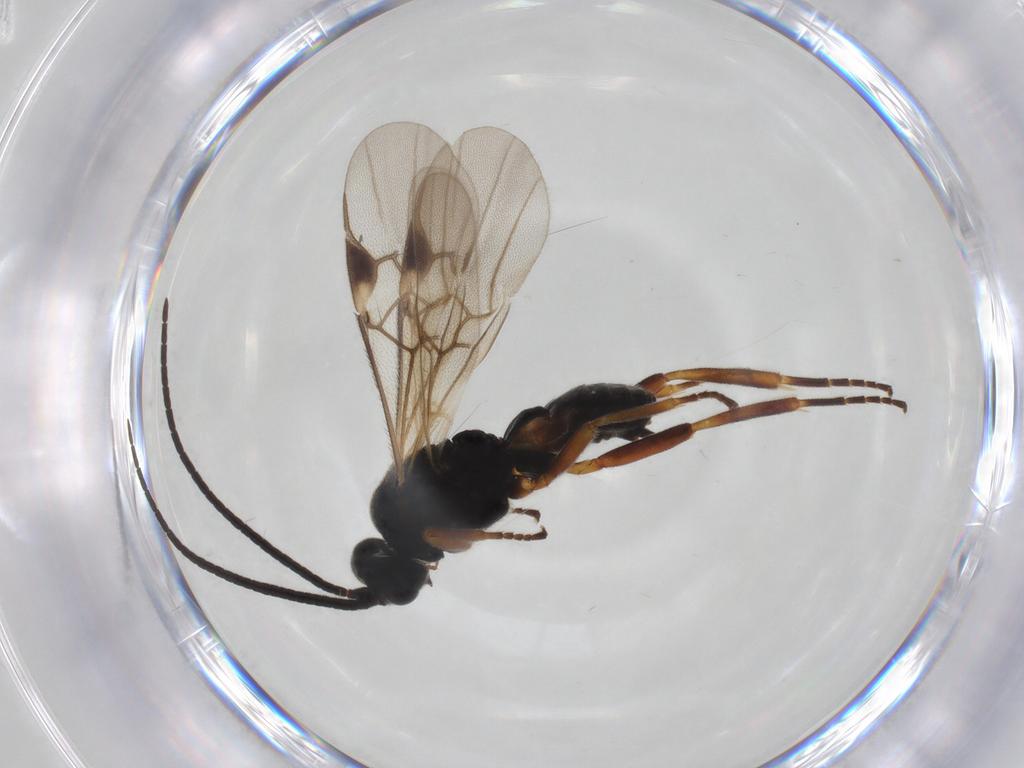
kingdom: Animalia
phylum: Arthropoda
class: Insecta
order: Hymenoptera
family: Braconidae
